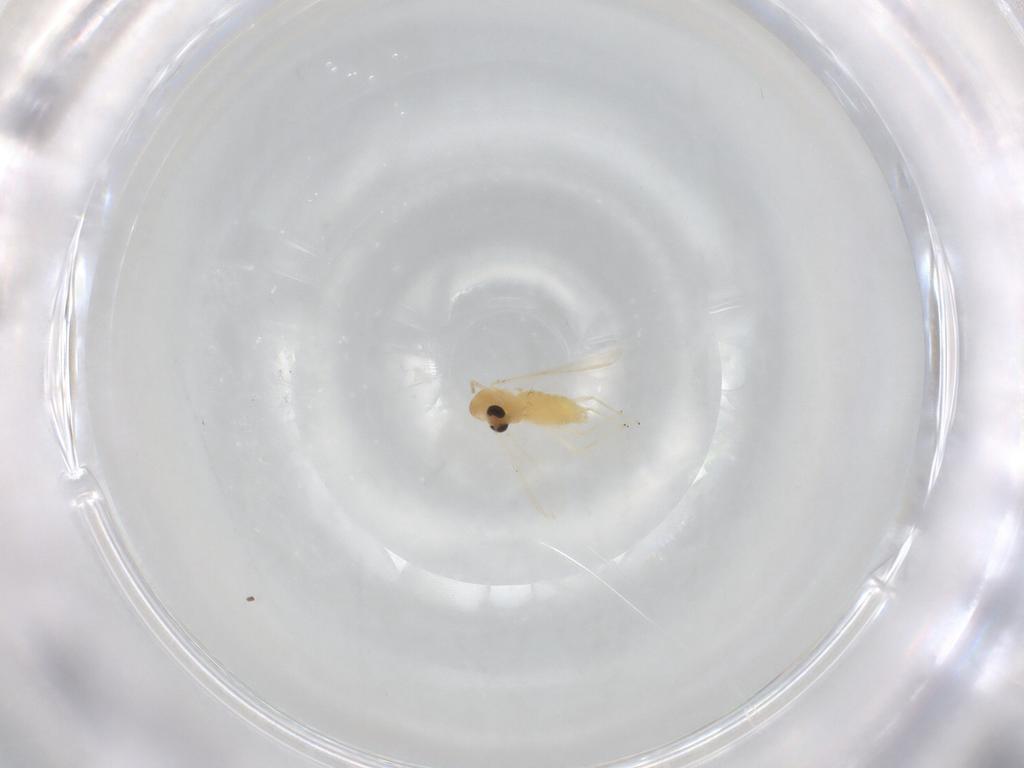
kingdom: Animalia
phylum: Arthropoda
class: Insecta
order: Diptera
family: Chironomidae
